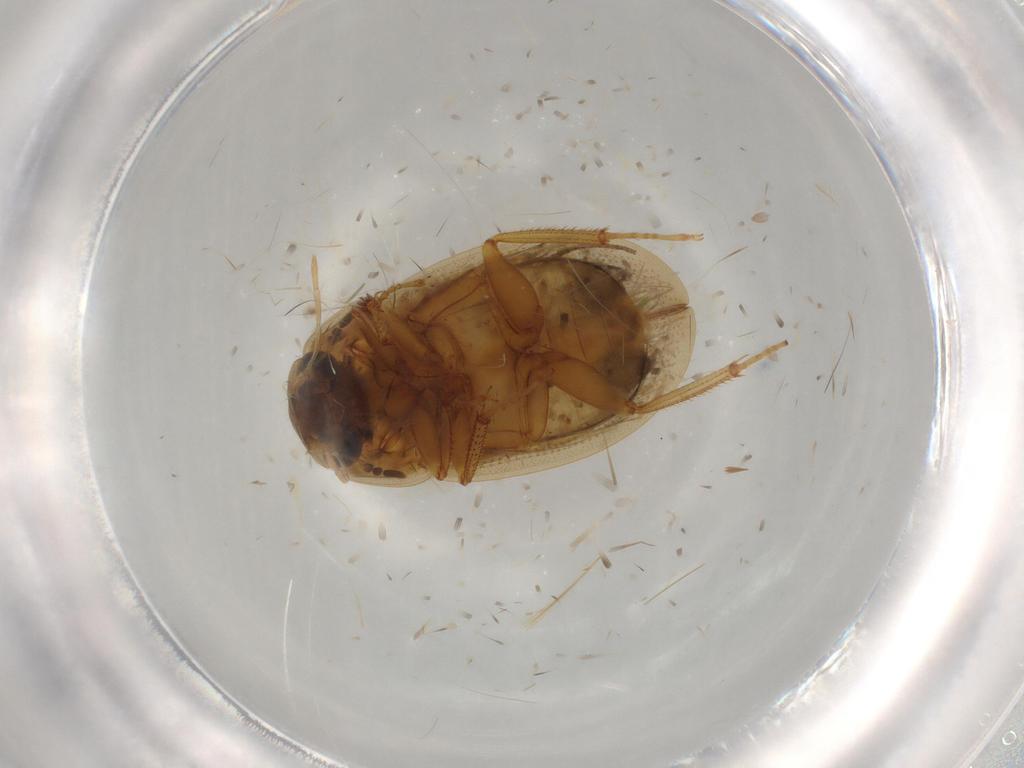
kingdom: Animalia
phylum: Arthropoda
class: Insecta
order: Coleoptera
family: Hydrophilidae
